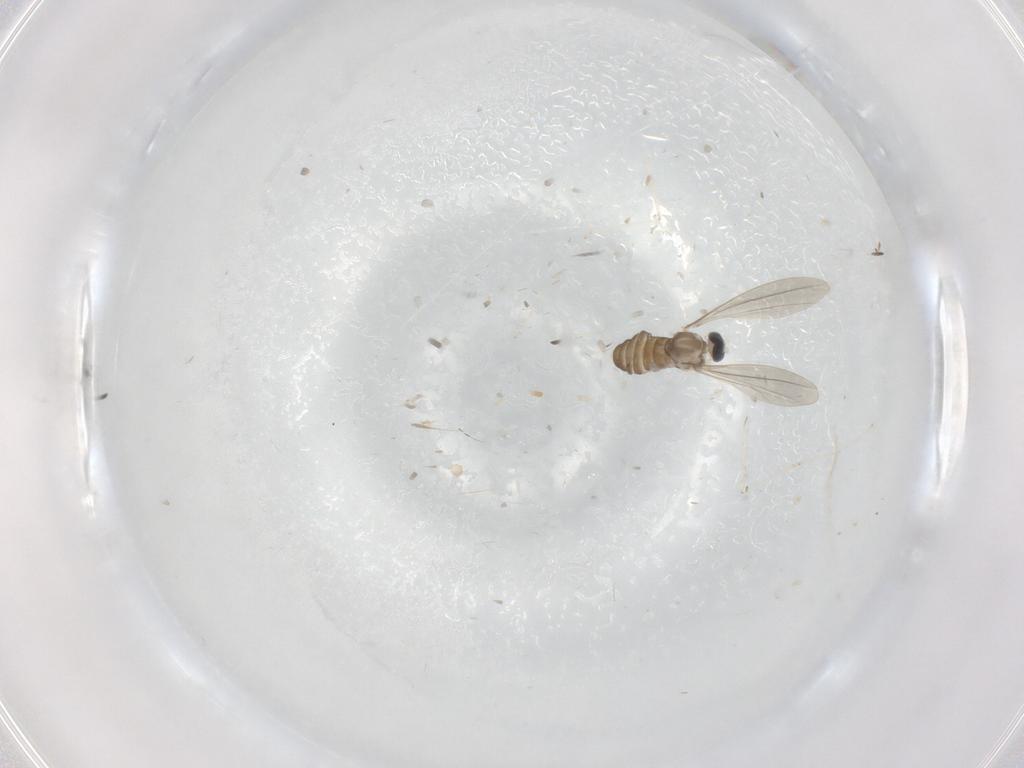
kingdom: Animalia
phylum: Arthropoda
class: Insecta
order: Diptera
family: Cecidomyiidae
